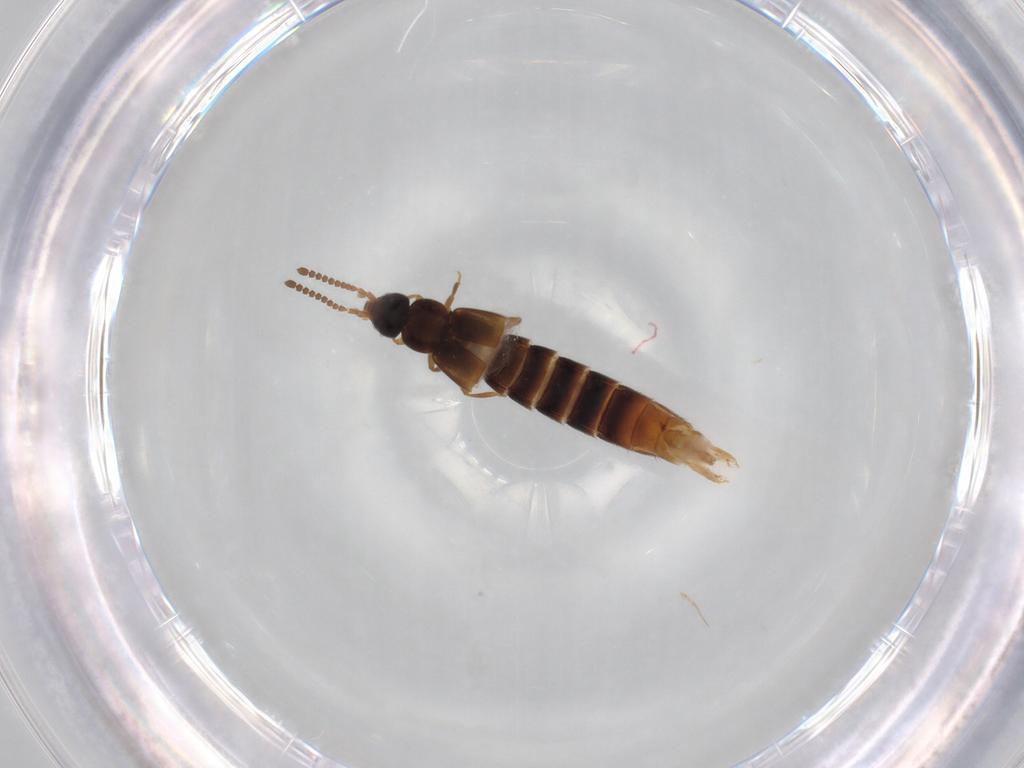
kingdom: Animalia
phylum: Arthropoda
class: Insecta
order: Coleoptera
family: Staphylinidae
